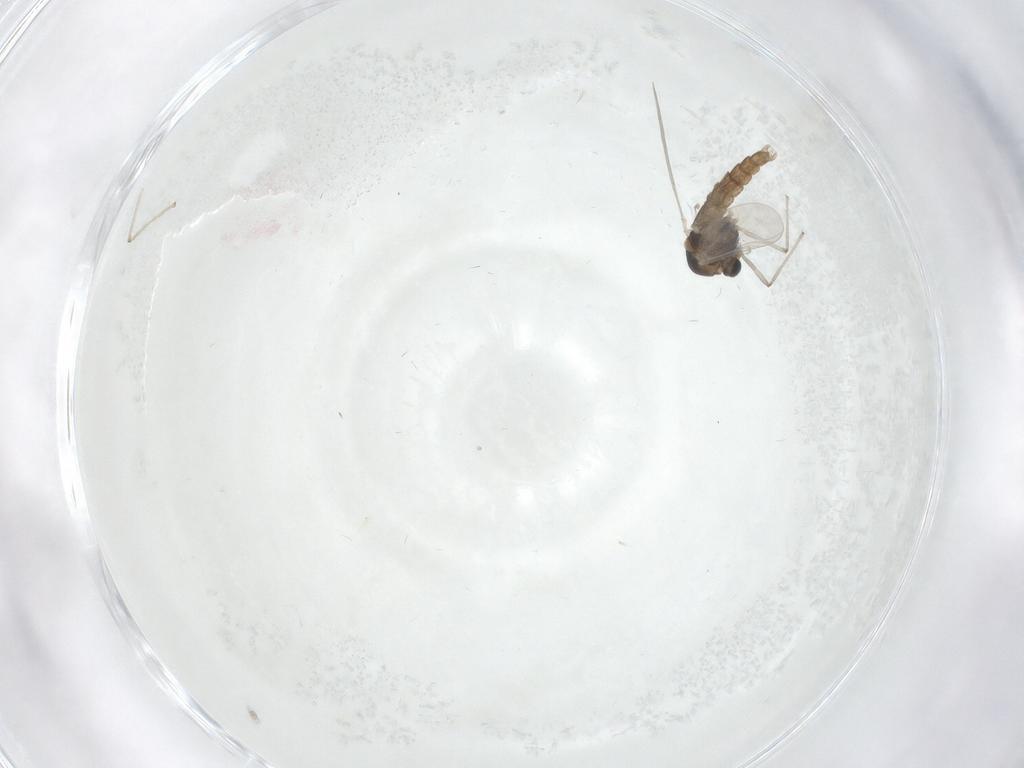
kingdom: Animalia
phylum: Arthropoda
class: Insecta
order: Diptera
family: Chironomidae
